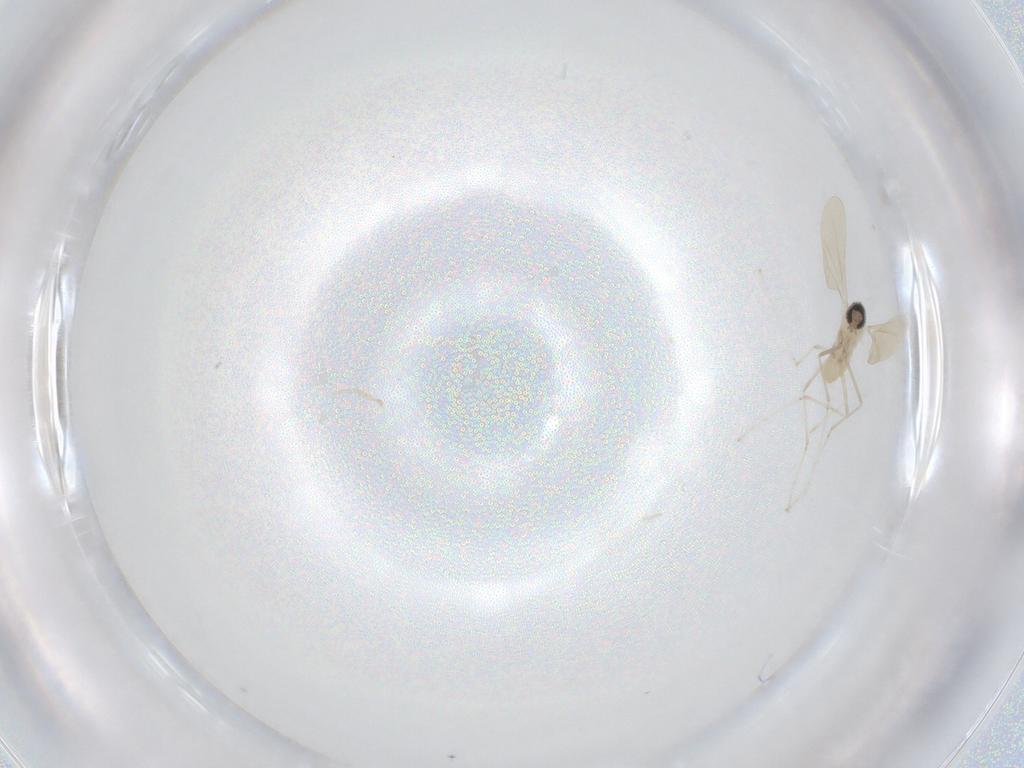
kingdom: Animalia
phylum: Arthropoda
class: Insecta
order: Diptera
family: Cecidomyiidae
